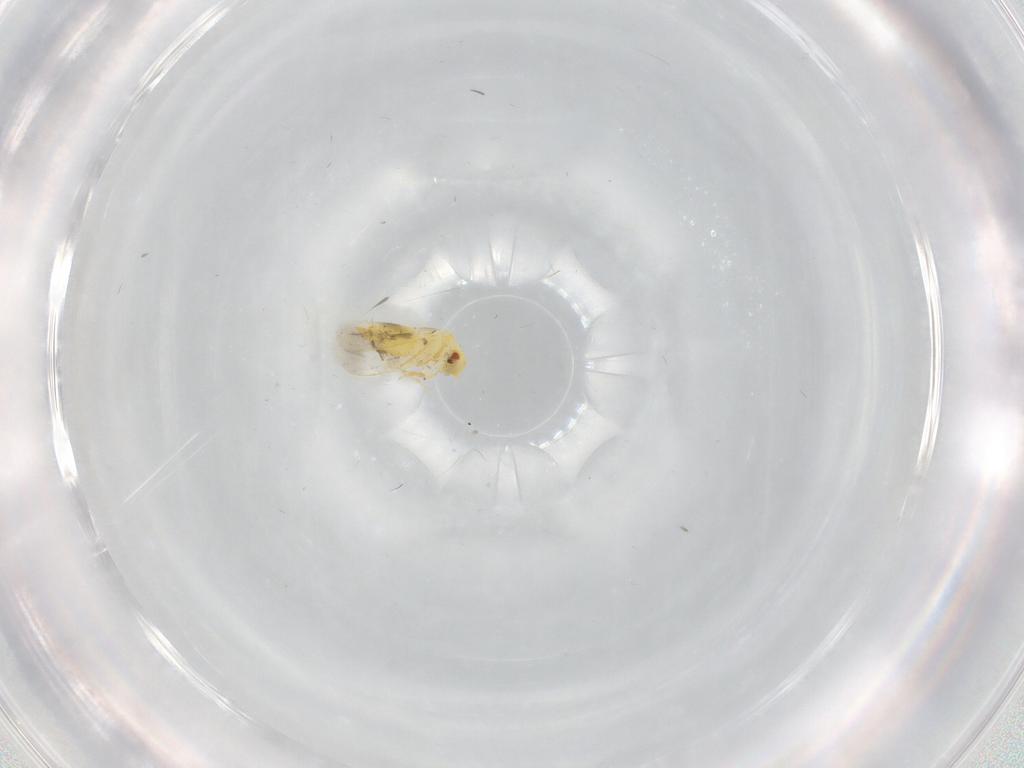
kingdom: Animalia
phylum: Arthropoda
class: Insecta
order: Hemiptera
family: Aleyrodidae
